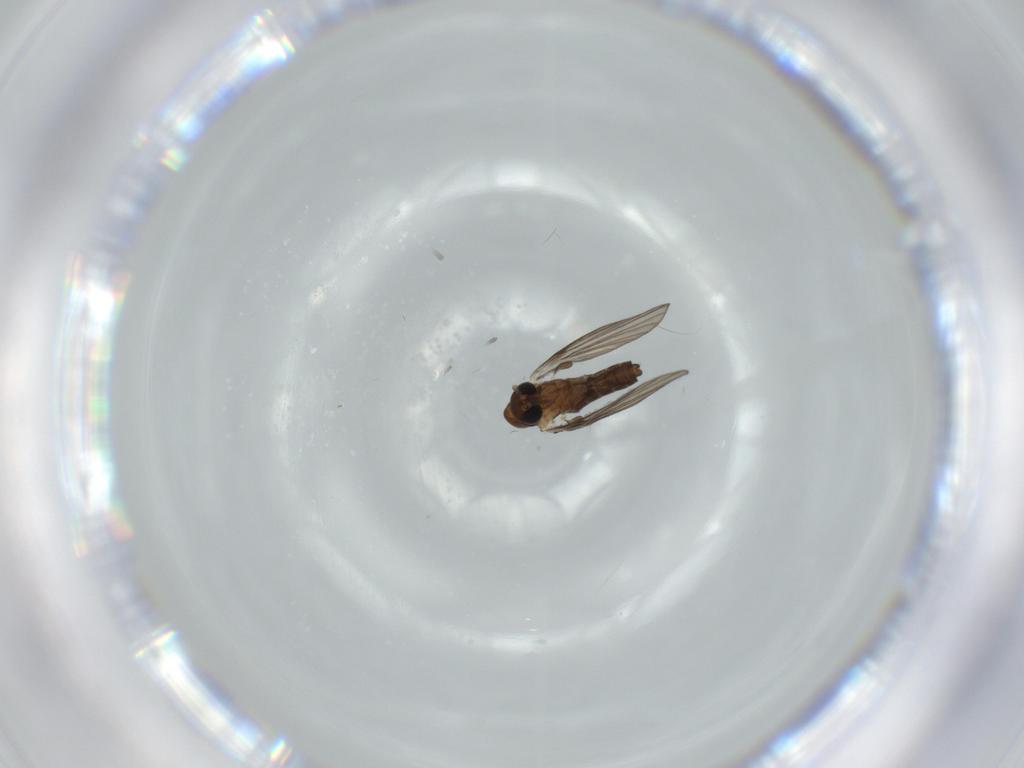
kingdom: Animalia
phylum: Arthropoda
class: Insecta
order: Diptera
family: Psychodidae
